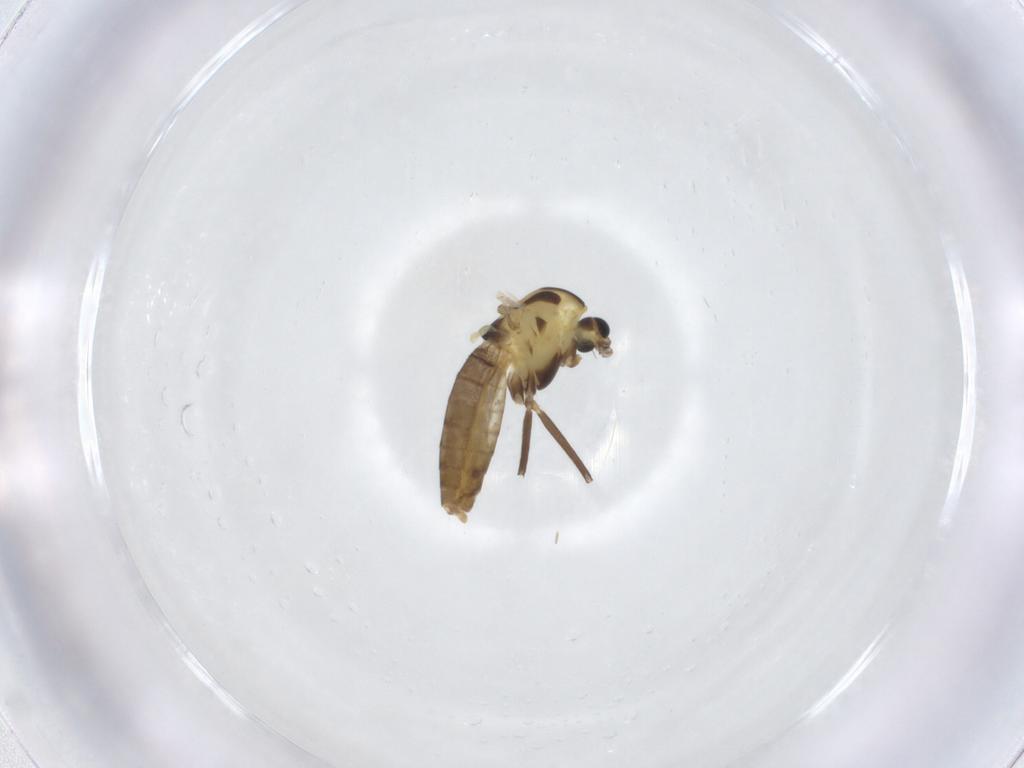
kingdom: Animalia
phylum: Arthropoda
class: Insecta
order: Diptera
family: Chironomidae
